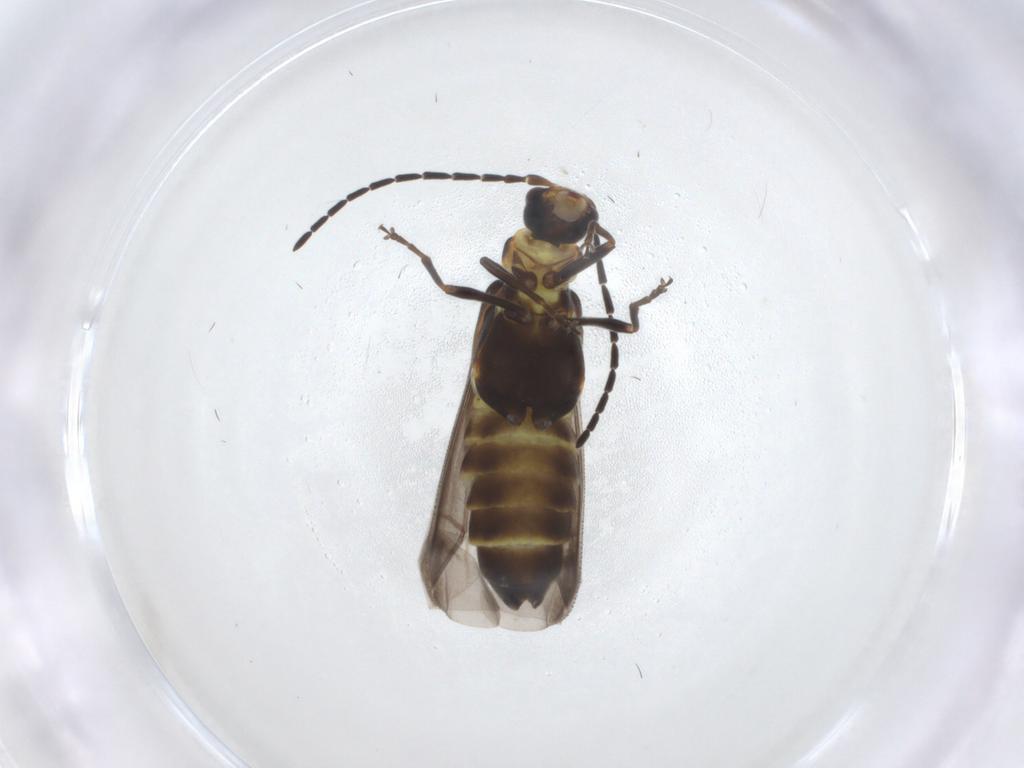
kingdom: Animalia
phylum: Arthropoda
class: Insecta
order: Coleoptera
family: Cantharidae
